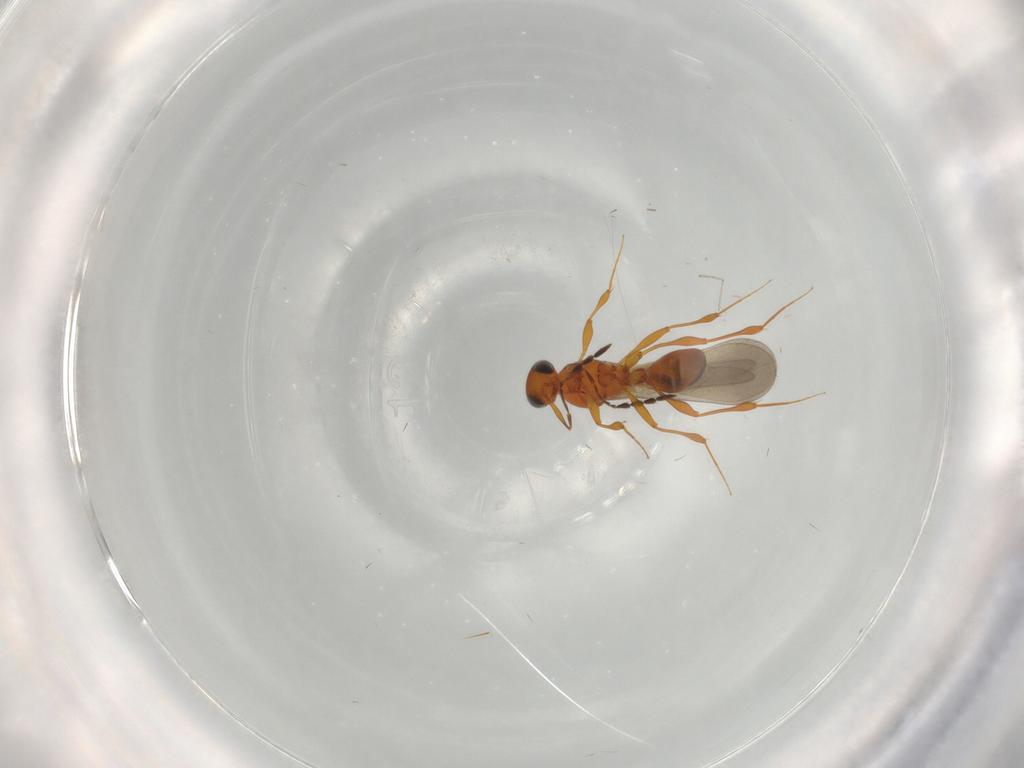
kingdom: Animalia
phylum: Arthropoda
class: Insecta
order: Hymenoptera
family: Platygastridae
